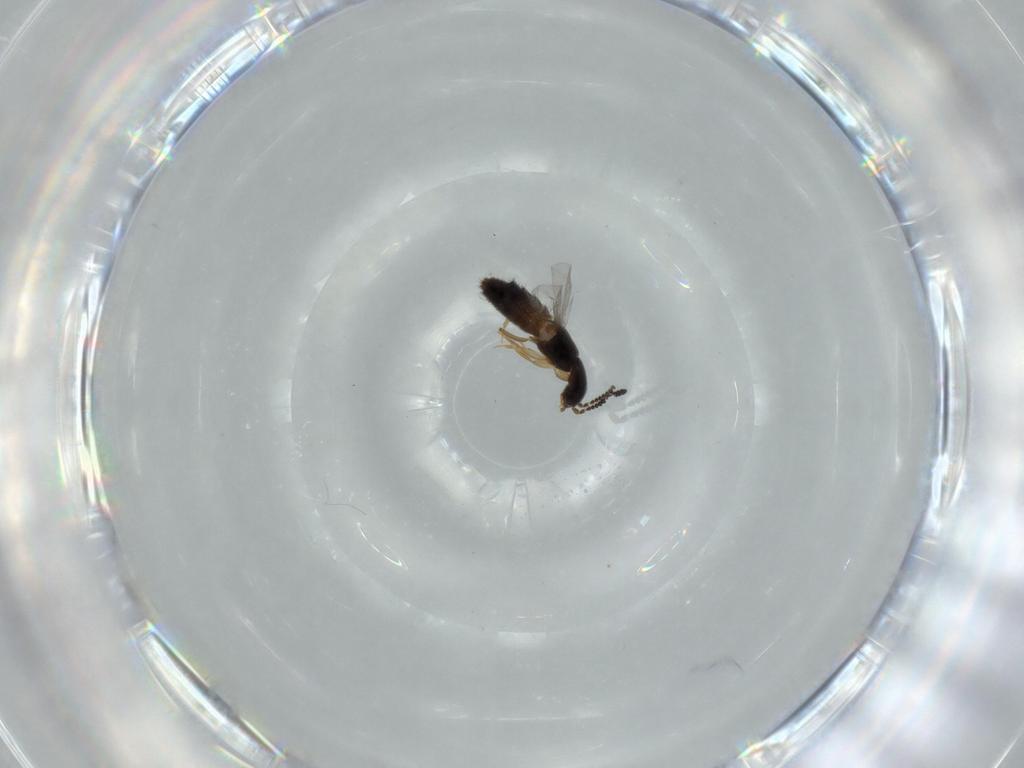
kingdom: Animalia
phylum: Arthropoda
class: Insecta
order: Coleoptera
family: Staphylinidae
